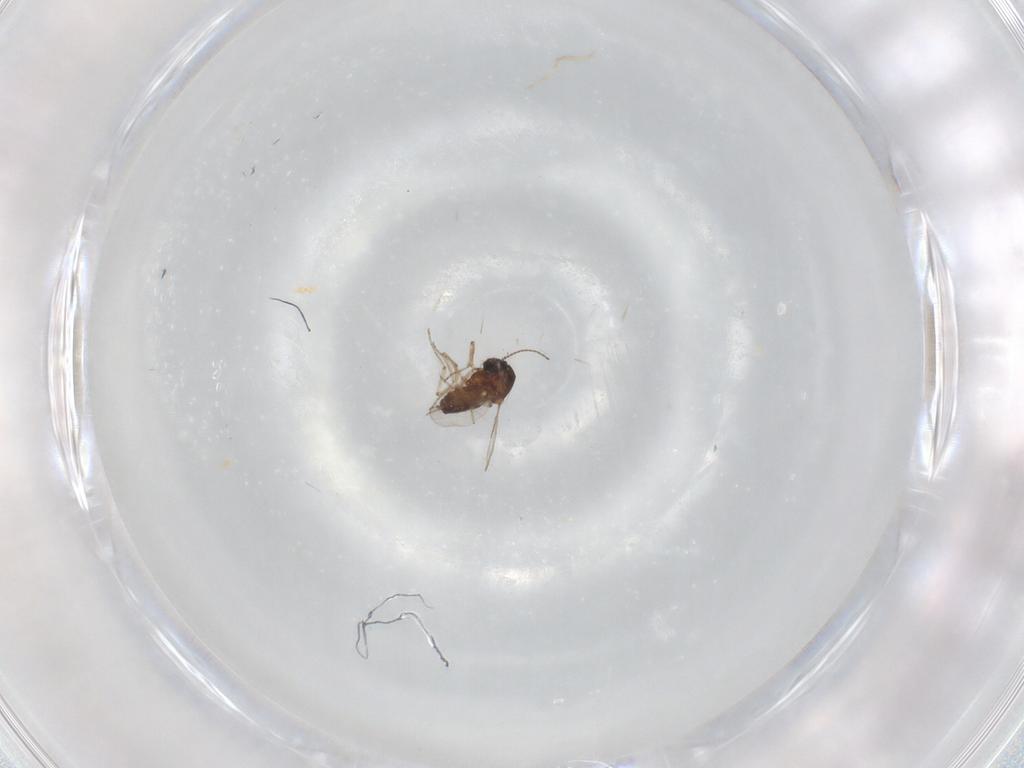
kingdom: Animalia
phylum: Arthropoda
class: Insecta
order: Diptera
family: Ceratopogonidae
